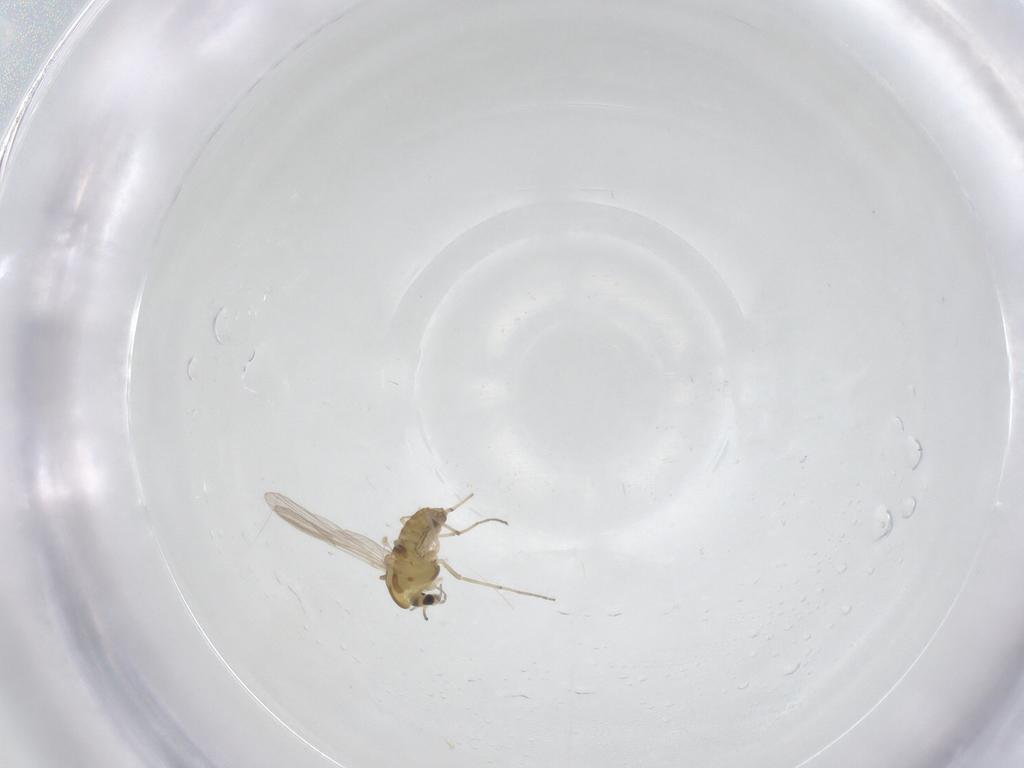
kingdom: Animalia
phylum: Arthropoda
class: Insecta
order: Diptera
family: Chironomidae
